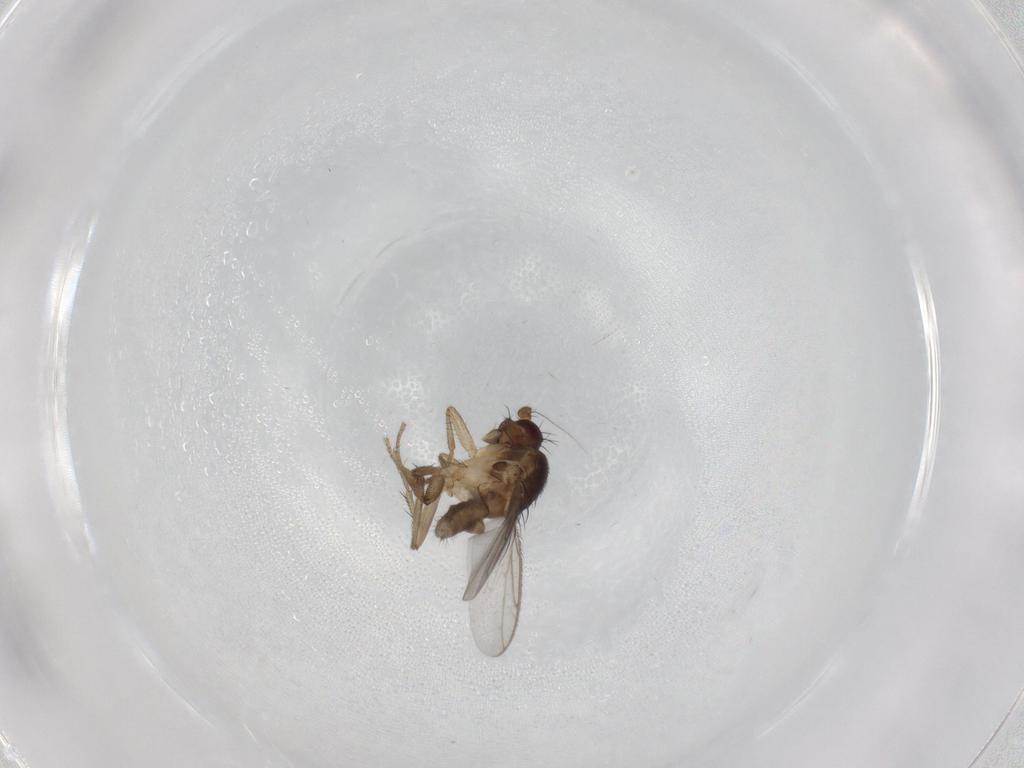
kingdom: Animalia
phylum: Arthropoda
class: Insecta
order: Diptera
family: Sphaeroceridae
